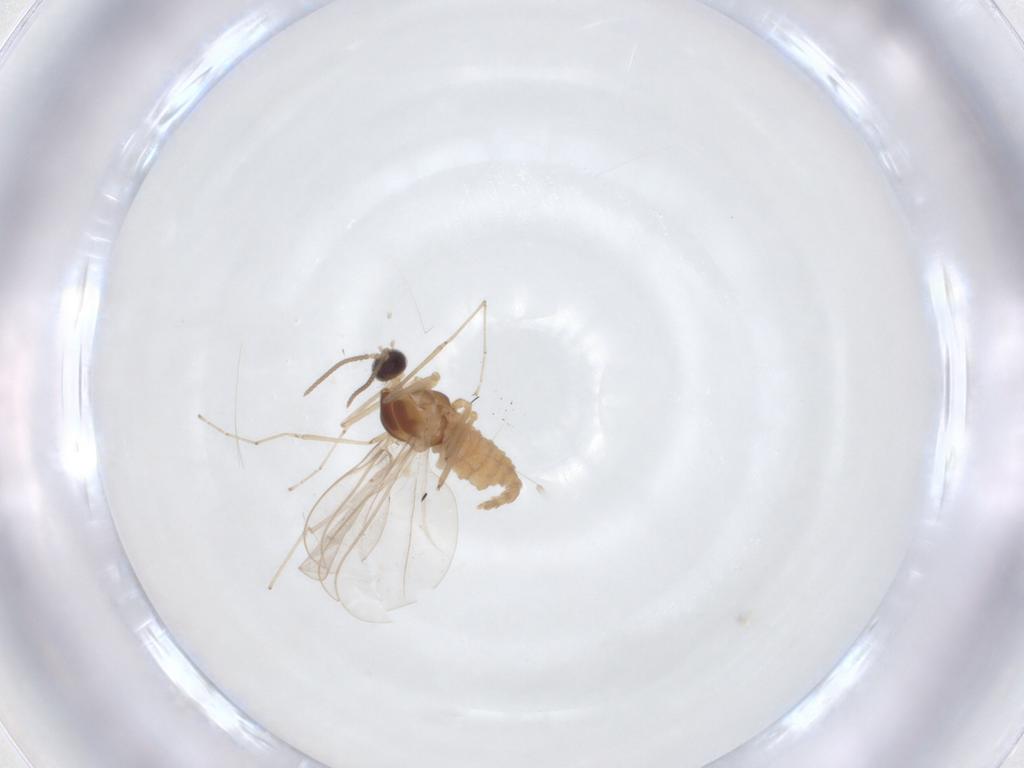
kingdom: Animalia
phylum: Arthropoda
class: Insecta
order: Diptera
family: Cecidomyiidae
